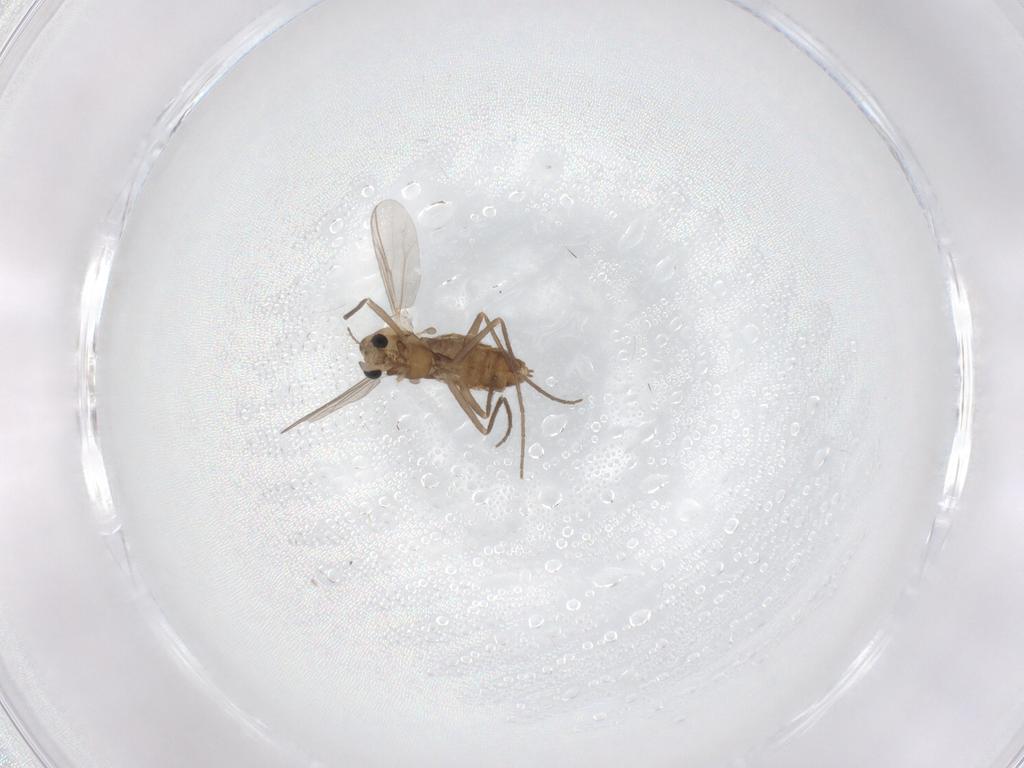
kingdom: Animalia
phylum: Arthropoda
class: Insecta
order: Diptera
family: Chironomidae
